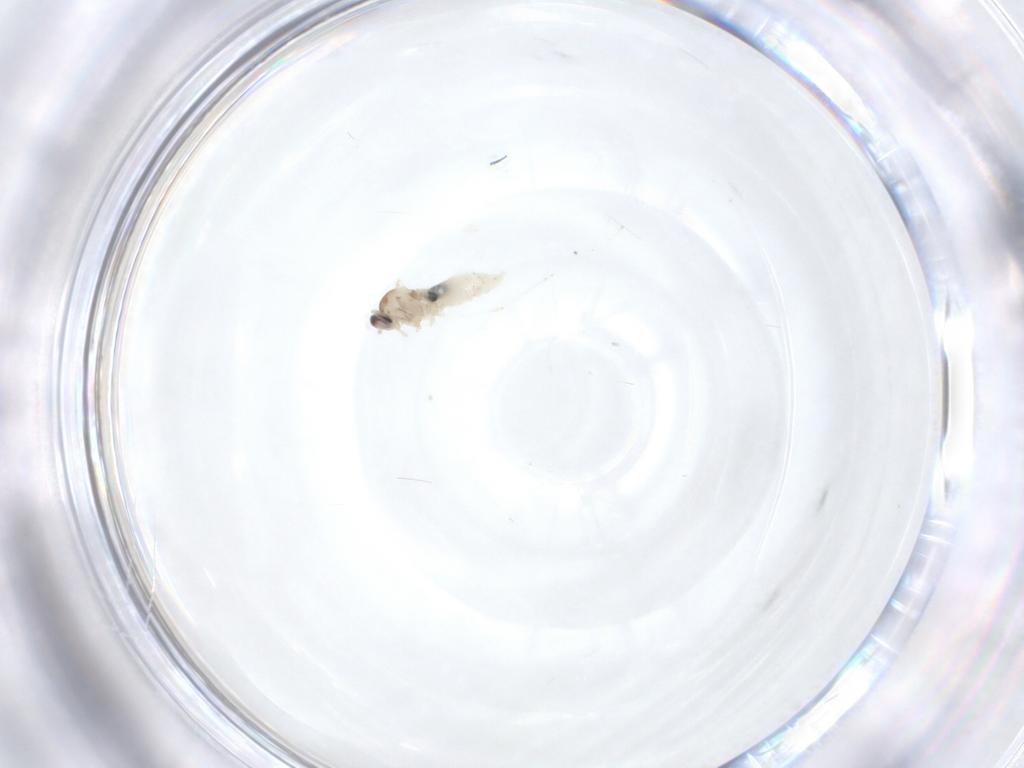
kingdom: Animalia
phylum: Arthropoda
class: Insecta
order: Diptera
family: Cecidomyiidae
